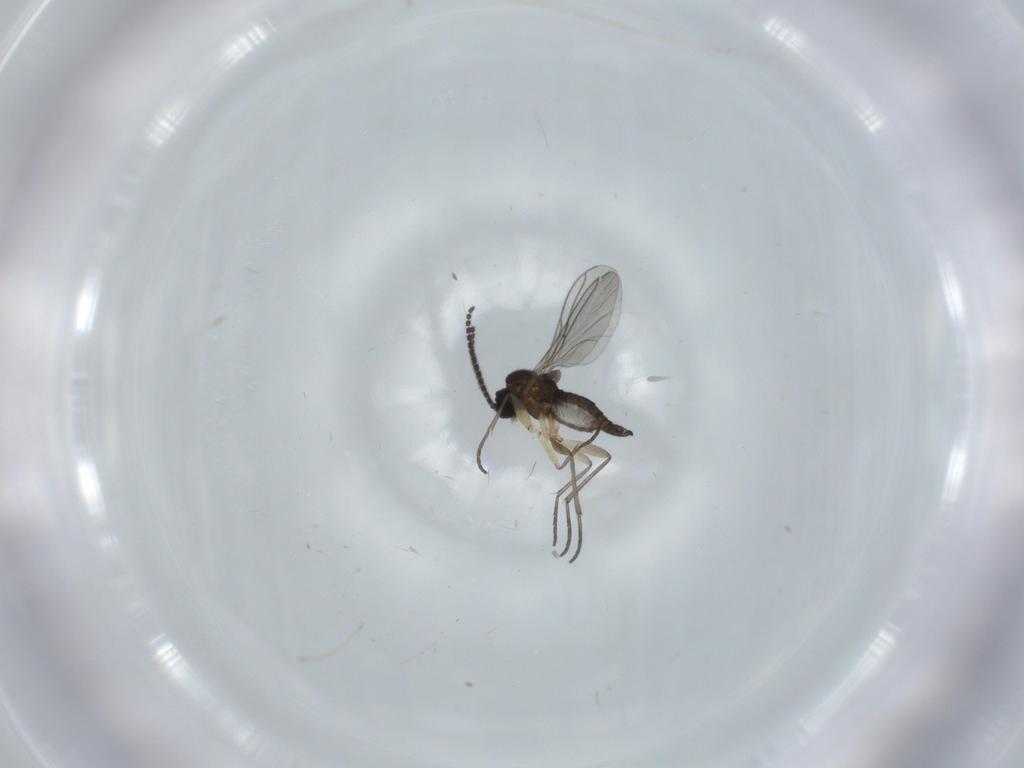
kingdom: Animalia
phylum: Arthropoda
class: Insecta
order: Diptera
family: Sciaridae
